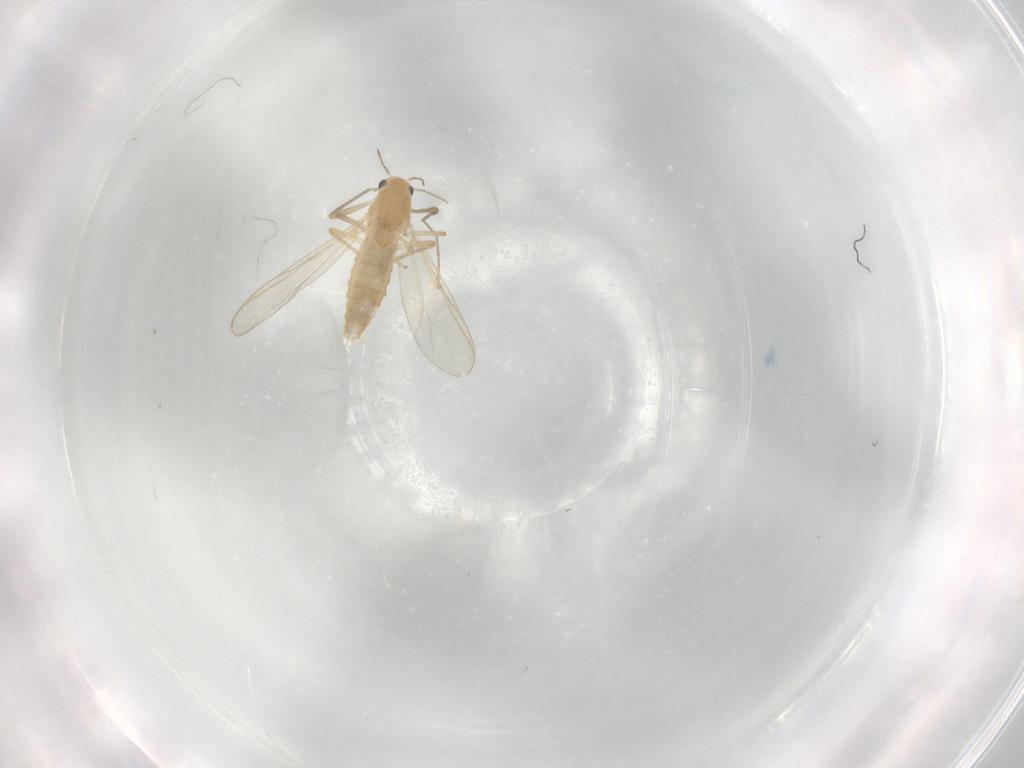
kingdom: Animalia
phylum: Arthropoda
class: Insecta
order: Diptera
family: Chironomidae
